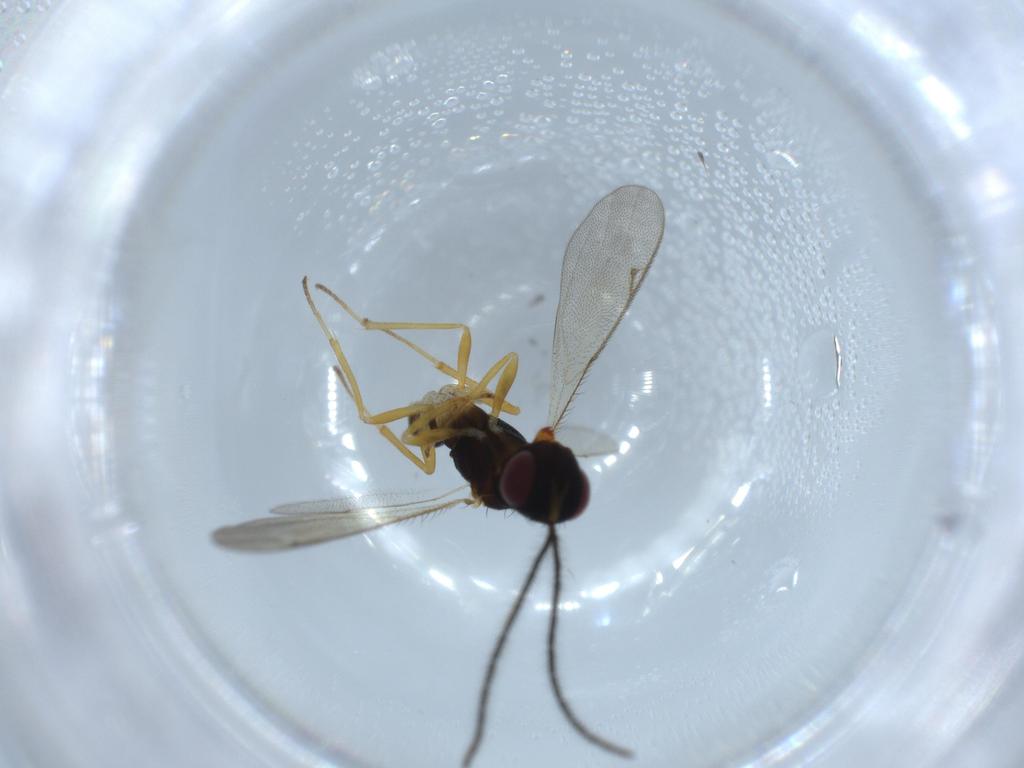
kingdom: Animalia
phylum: Arthropoda
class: Insecta
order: Hymenoptera
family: Diparidae
